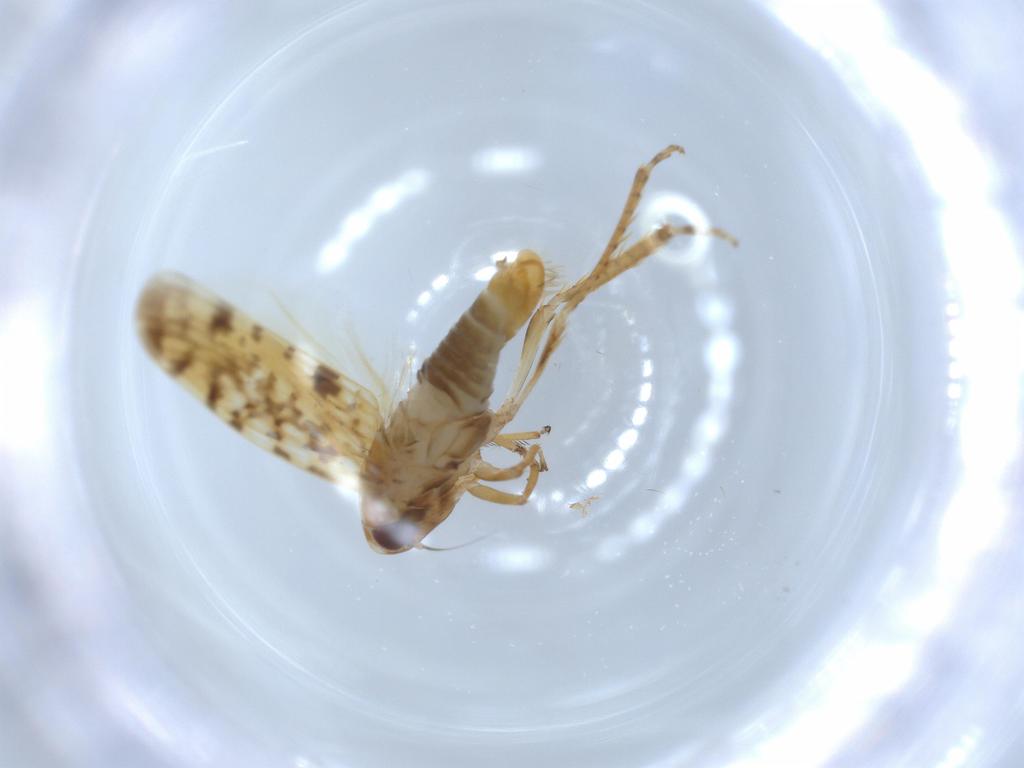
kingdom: Animalia
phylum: Arthropoda
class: Insecta
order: Hemiptera
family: Cicadellidae
